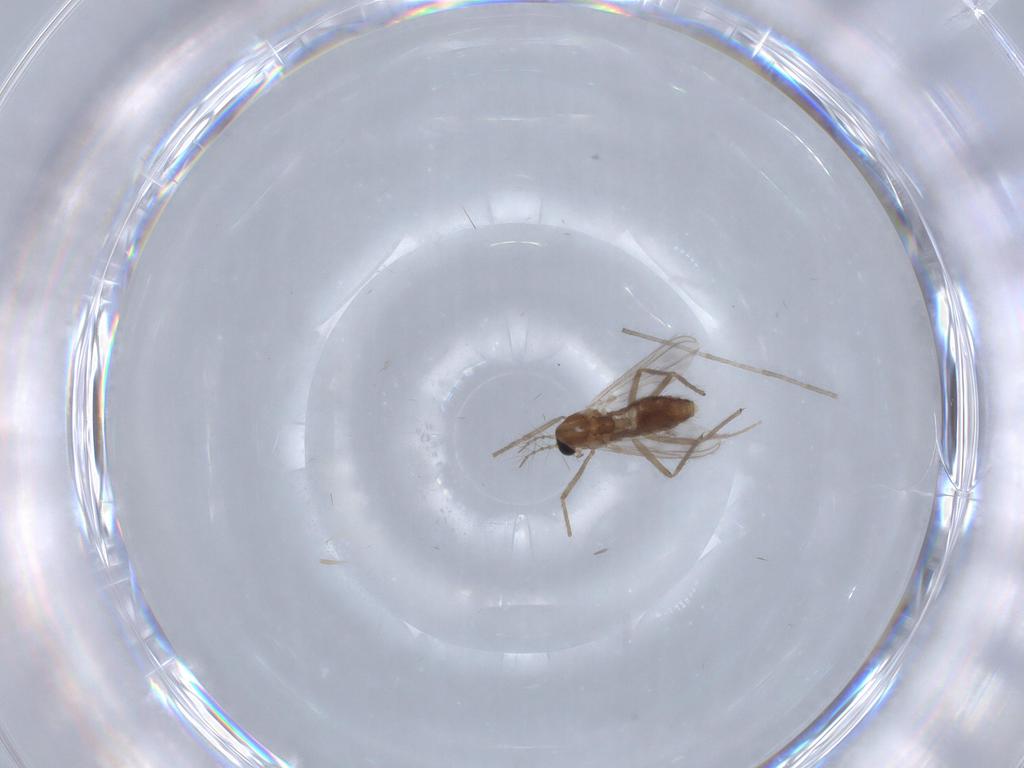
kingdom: Animalia
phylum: Arthropoda
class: Insecta
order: Diptera
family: Chironomidae
